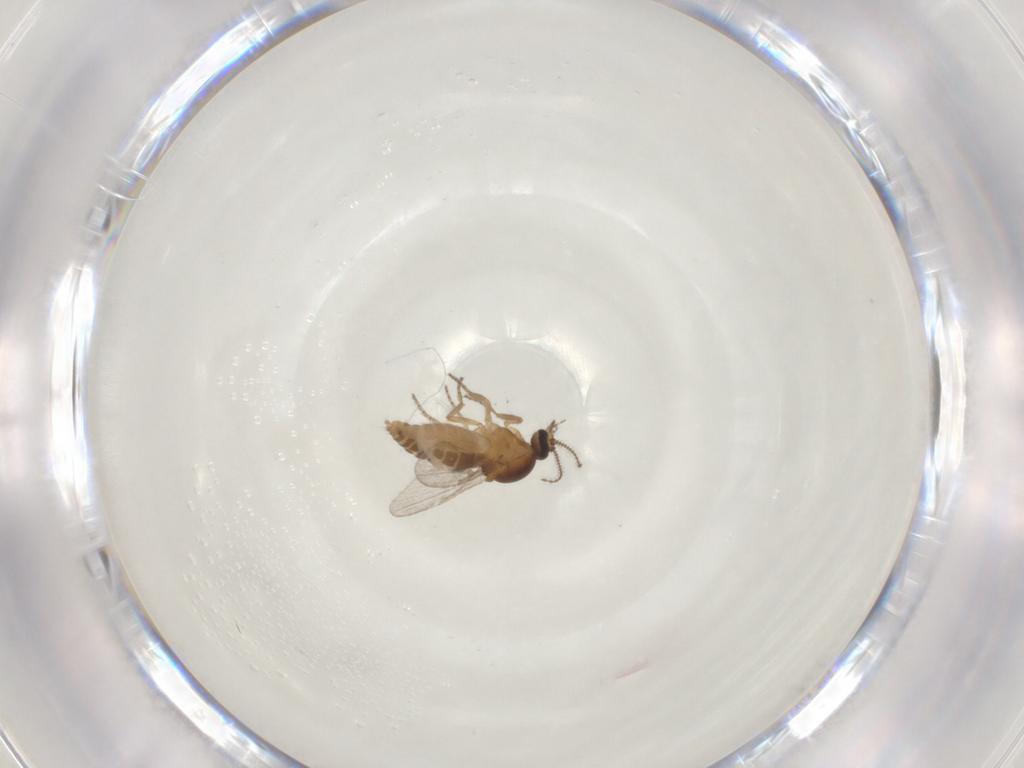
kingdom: Animalia
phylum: Arthropoda
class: Insecta
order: Diptera
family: Ceratopogonidae
